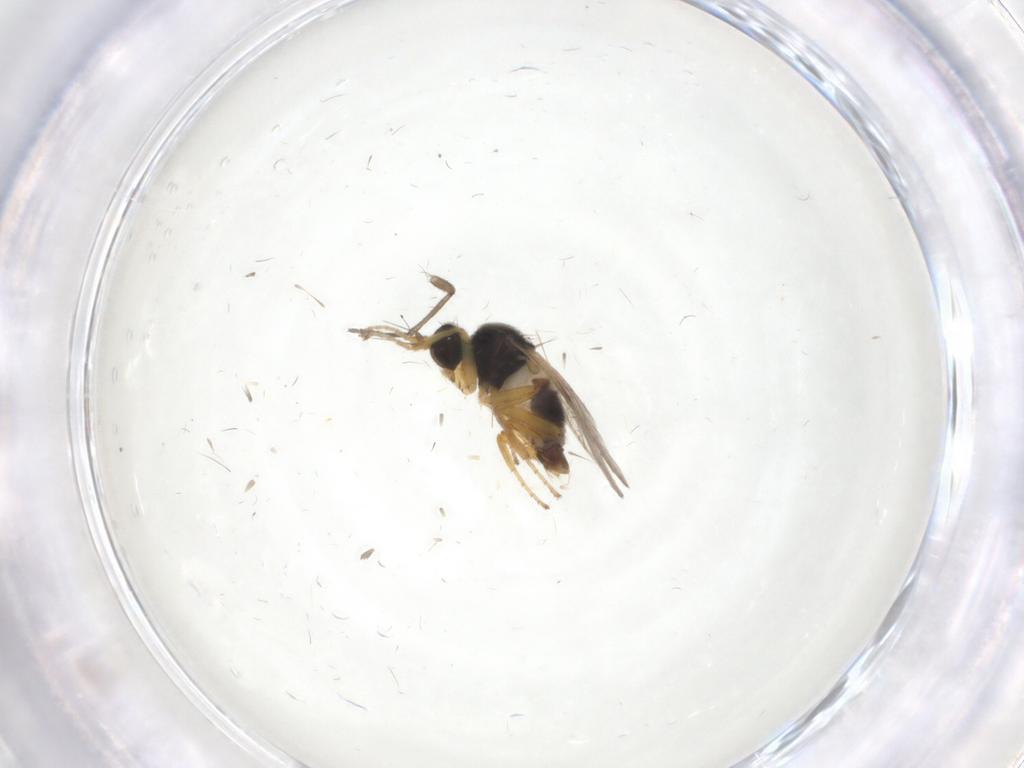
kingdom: Animalia
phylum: Arthropoda
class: Insecta
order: Diptera
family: Hybotidae
